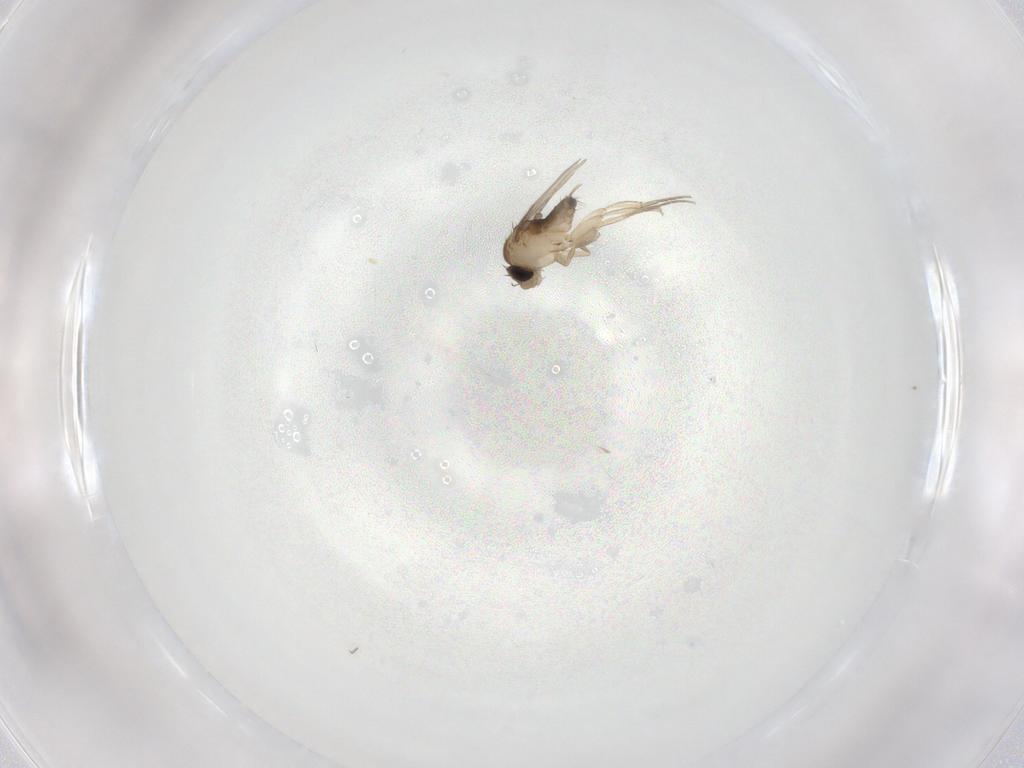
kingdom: Animalia
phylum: Arthropoda
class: Insecta
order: Diptera
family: Phoridae
